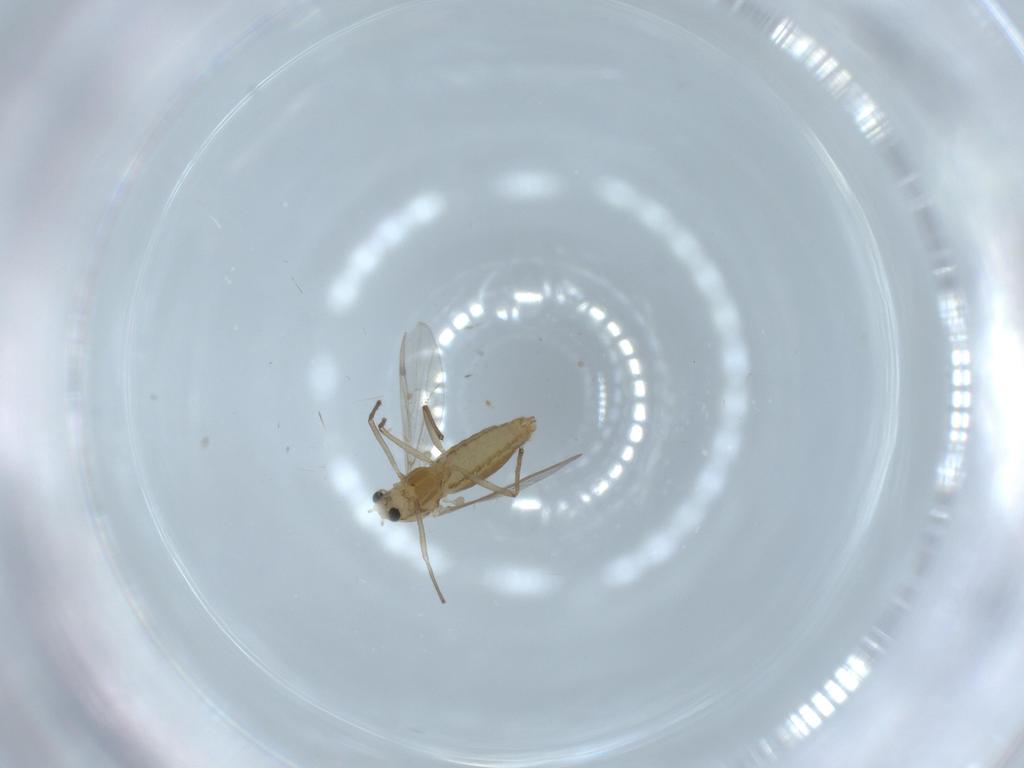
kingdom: Animalia
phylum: Arthropoda
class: Insecta
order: Diptera
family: Chironomidae
